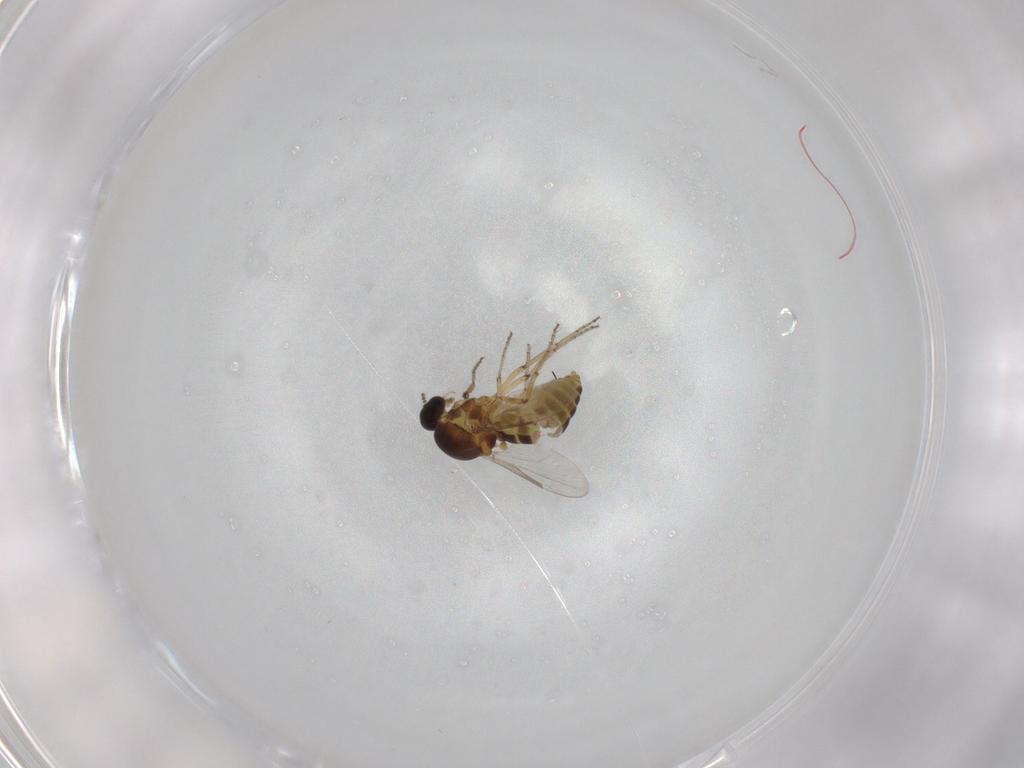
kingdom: Animalia
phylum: Arthropoda
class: Insecta
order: Diptera
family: Ceratopogonidae
